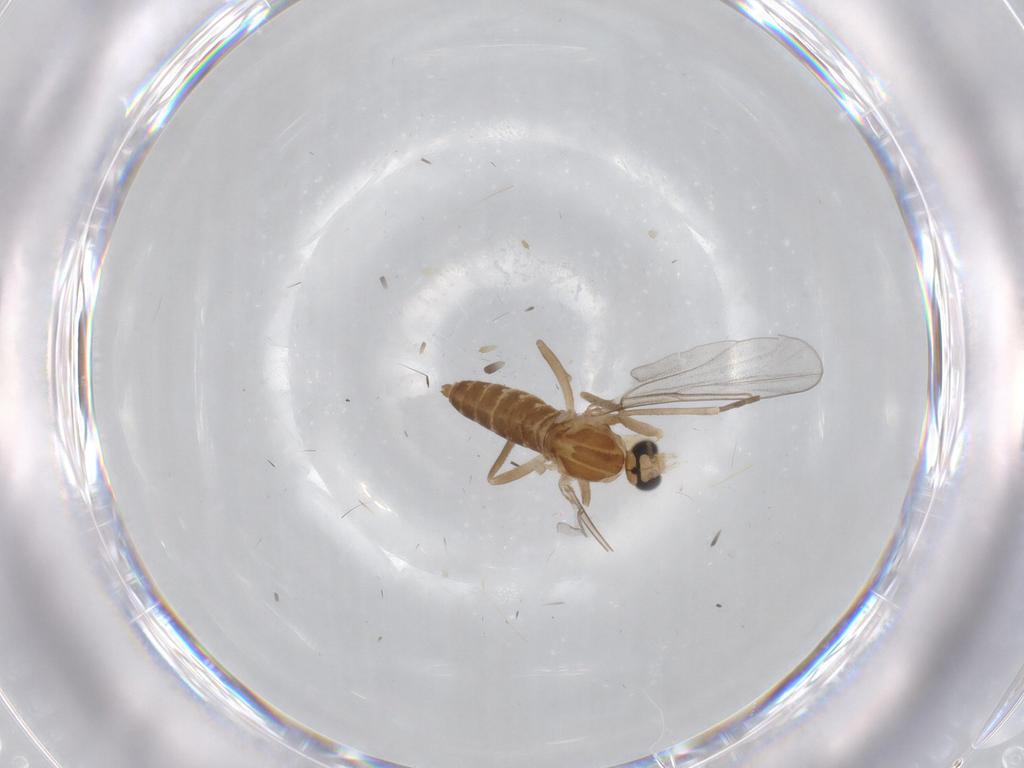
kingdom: Animalia
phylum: Arthropoda
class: Insecta
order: Diptera
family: Cecidomyiidae
